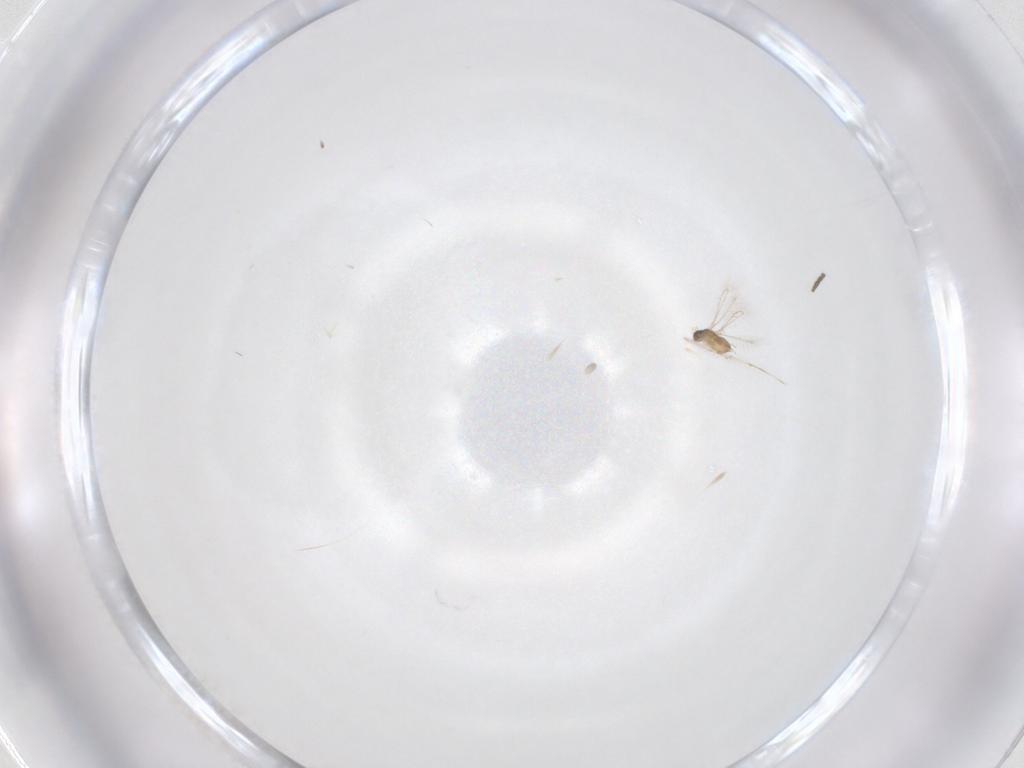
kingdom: Animalia
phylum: Arthropoda
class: Insecta
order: Hymenoptera
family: Mymaridae
